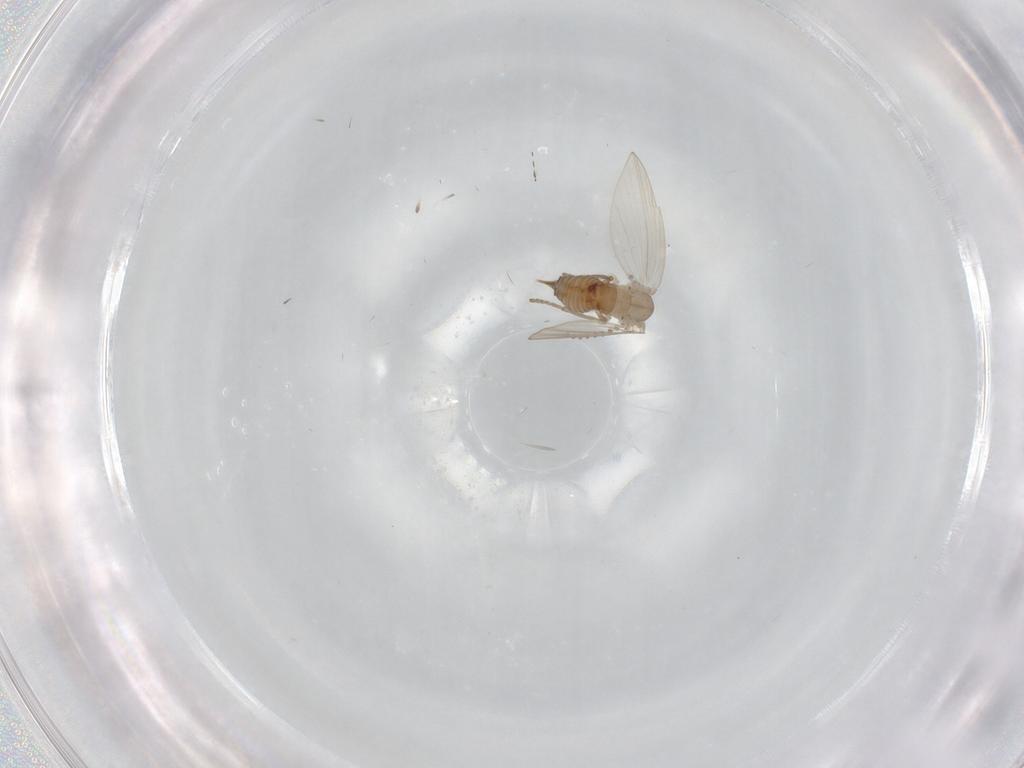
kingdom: Animalia
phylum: Arthropoda
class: Insecta
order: Diptera
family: Psychodidae
